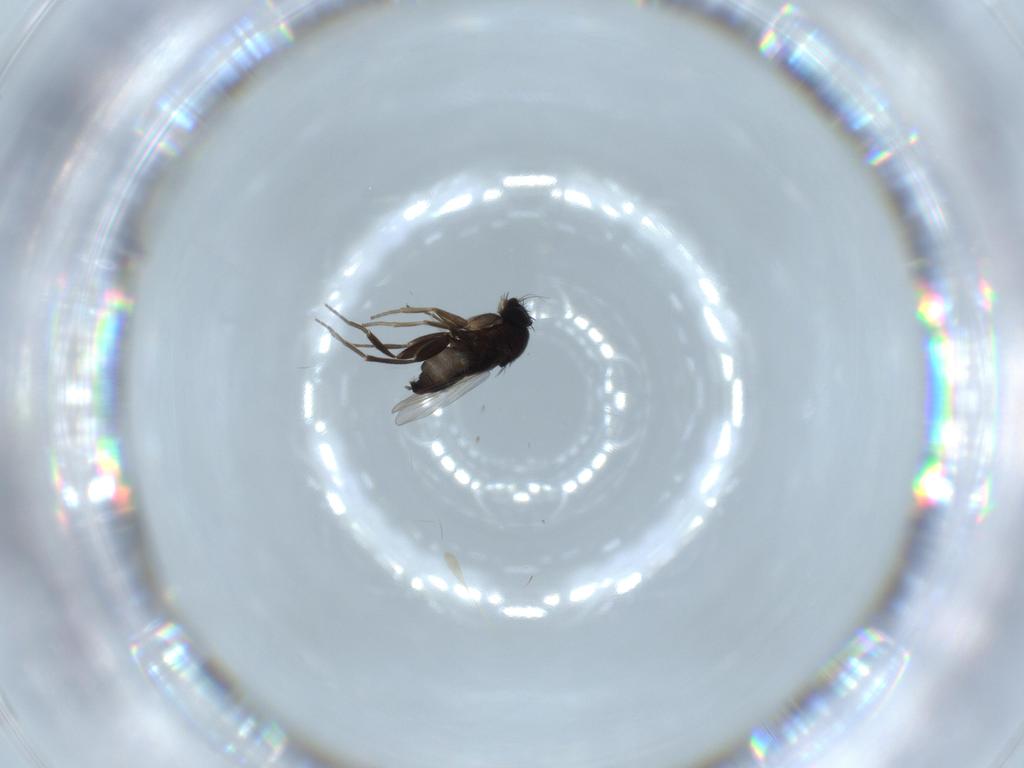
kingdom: Animalia
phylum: Arthropoda
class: Insecta
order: Diptera
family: Phoridae
